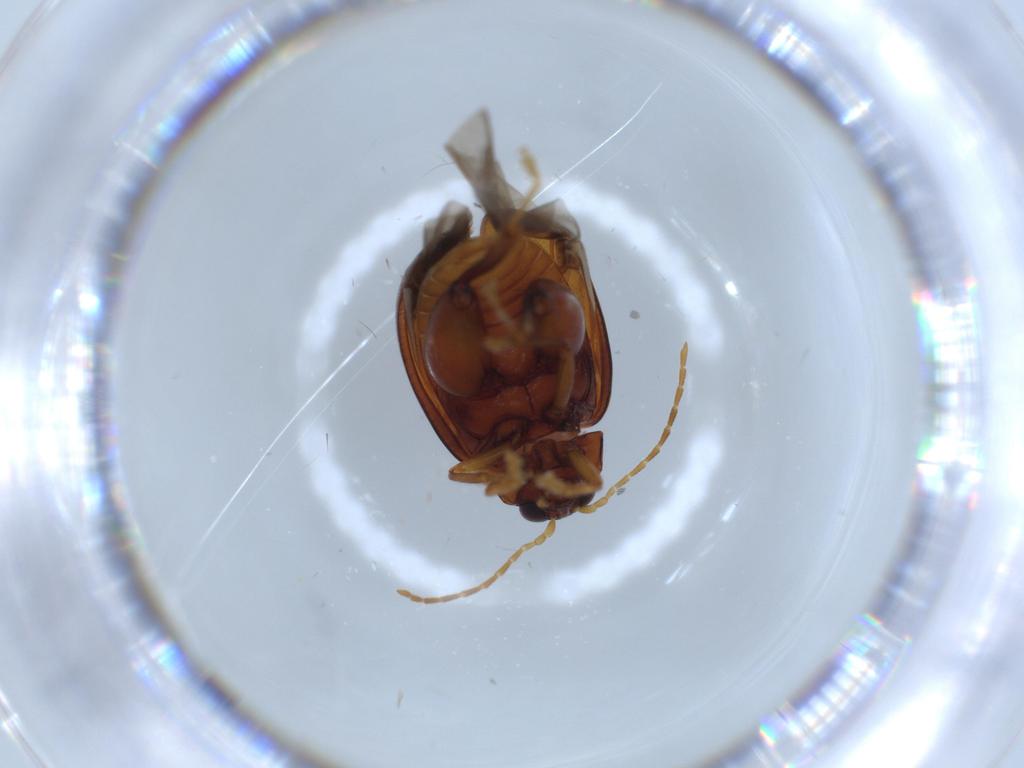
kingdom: Animalia
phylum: Arthropoda
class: Insecta
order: Coleoptera
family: Chrysomelidae
